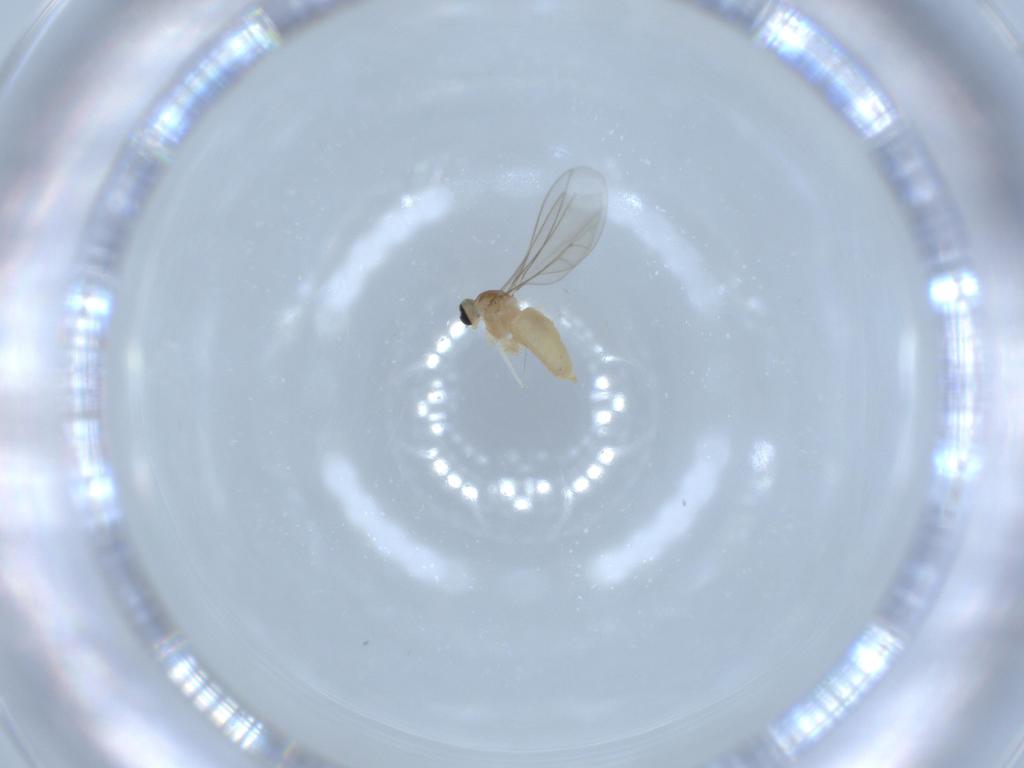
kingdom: Animalia
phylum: Arthropoda
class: Insecta
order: Diptera
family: Cecidomyiidae
